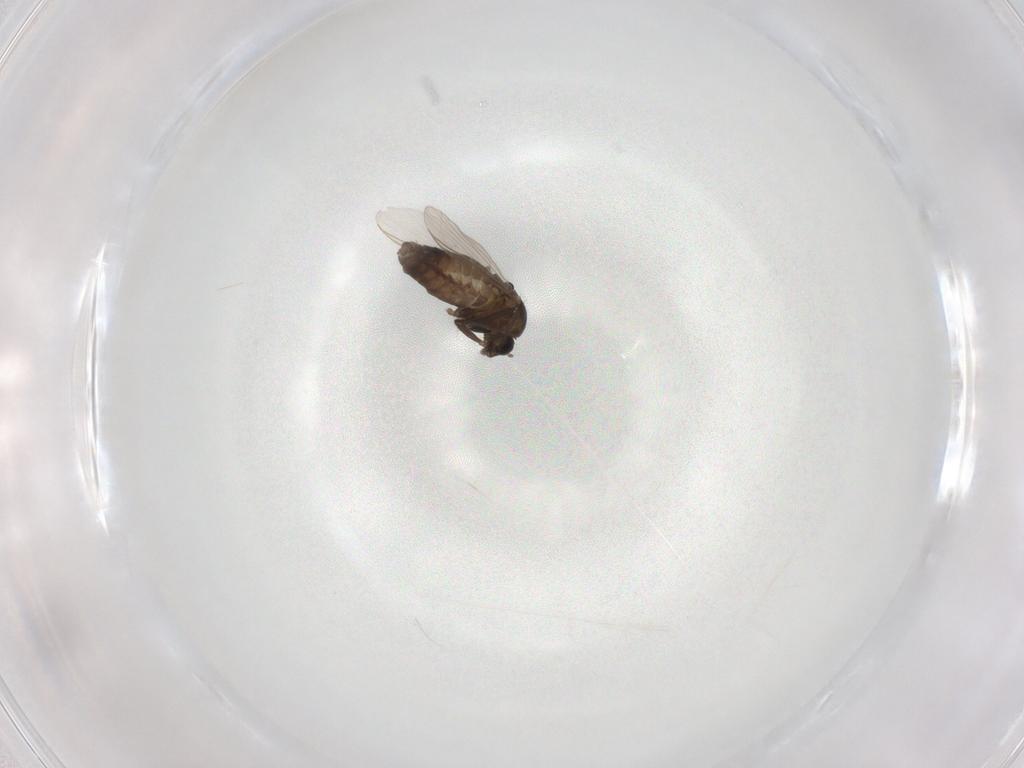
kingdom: Animalia
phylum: Arthropoda
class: Insecta
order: Diptera
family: Chironomidae
